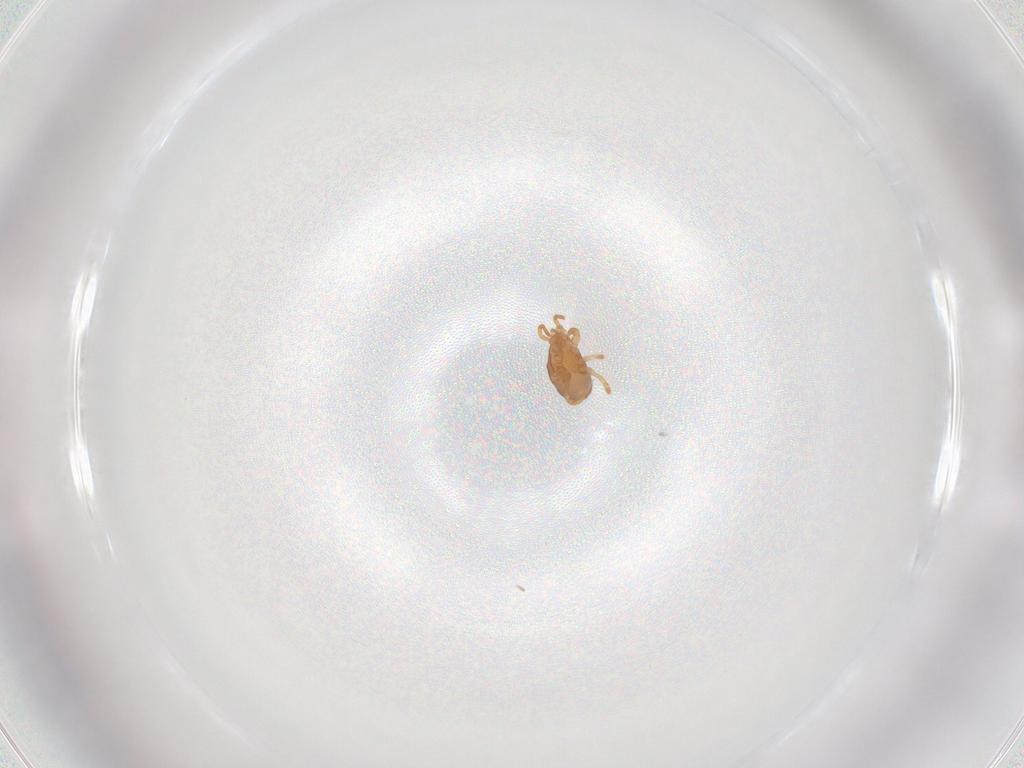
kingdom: Animalia
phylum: Arthropoda
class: Arachnida
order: Mesostigmata
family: Parasitidae
